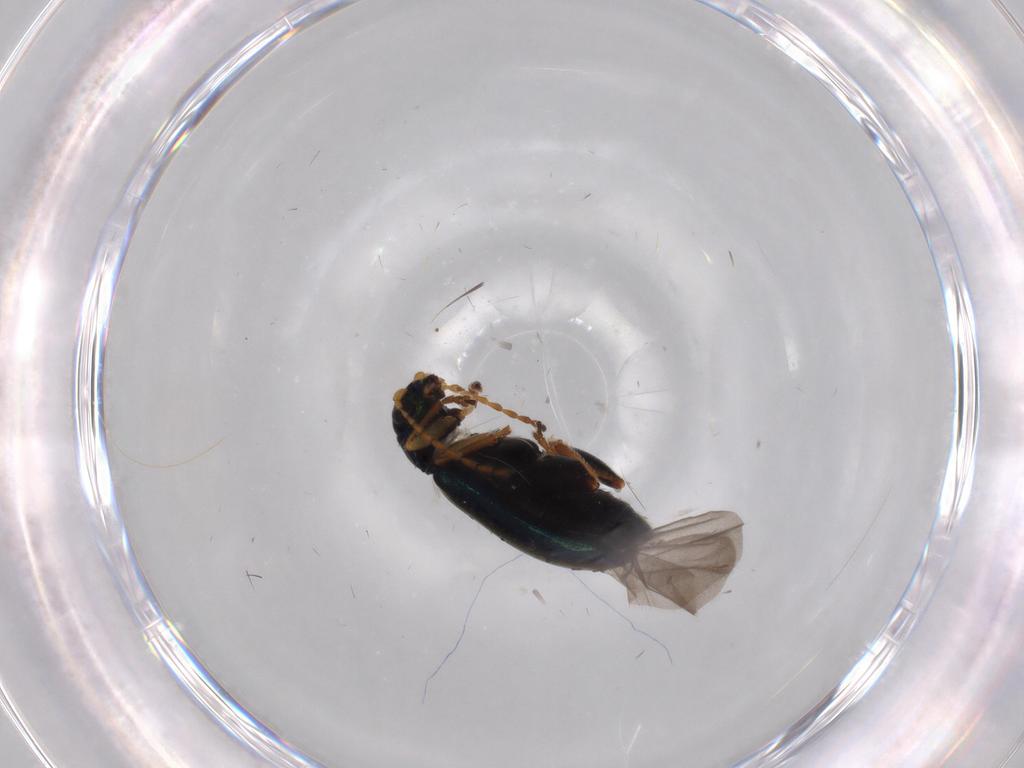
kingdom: Animalia
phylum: Arthropoda
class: Insecta
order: Coleoptera
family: Chrysomelidae
